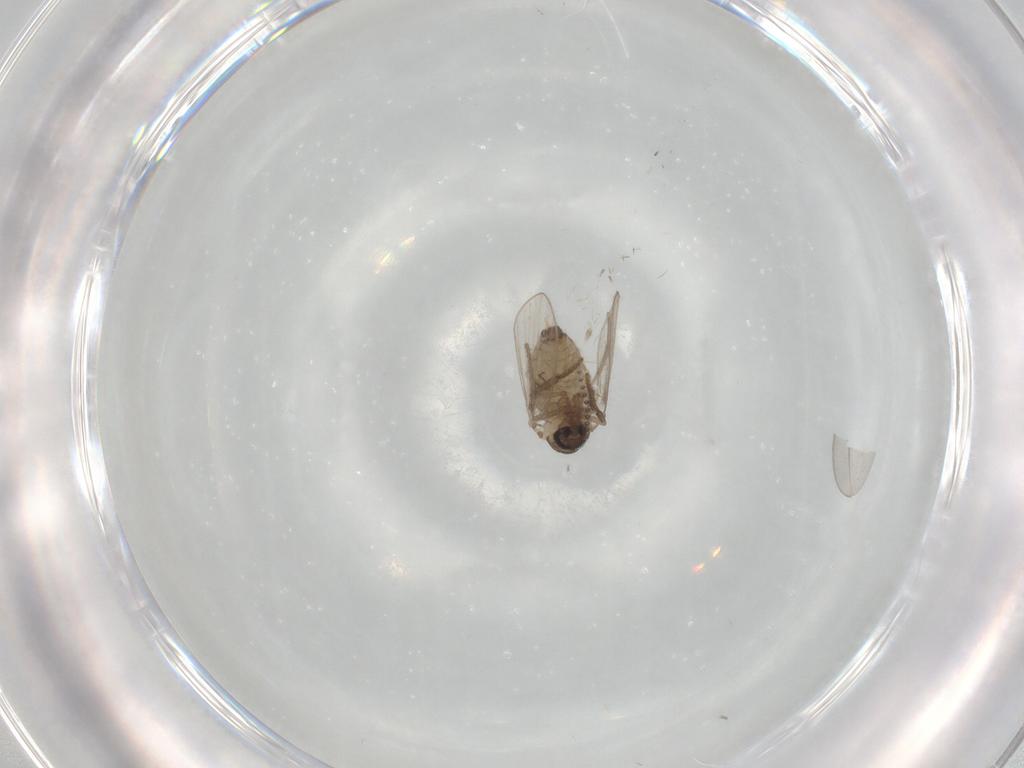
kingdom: Animalia
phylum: Arthropoda
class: Insecta
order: Diptera
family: Psychodidae
